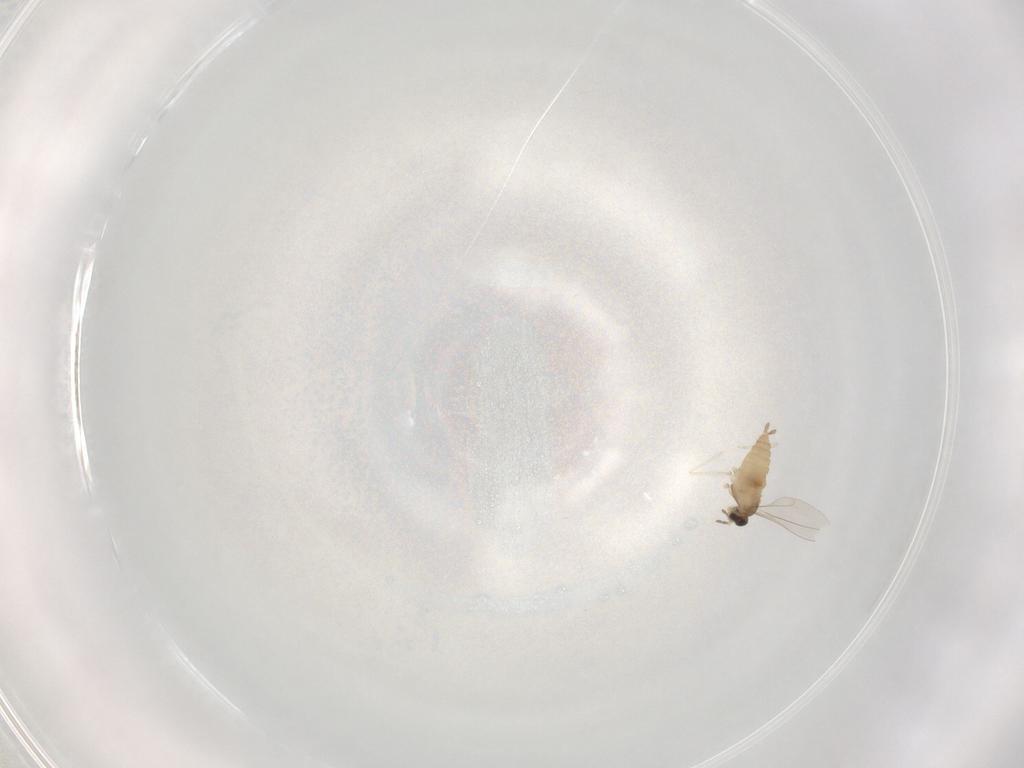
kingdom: Animalia
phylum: Arthropoda
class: Insecta
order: Diptera
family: Cecidomyiidae
